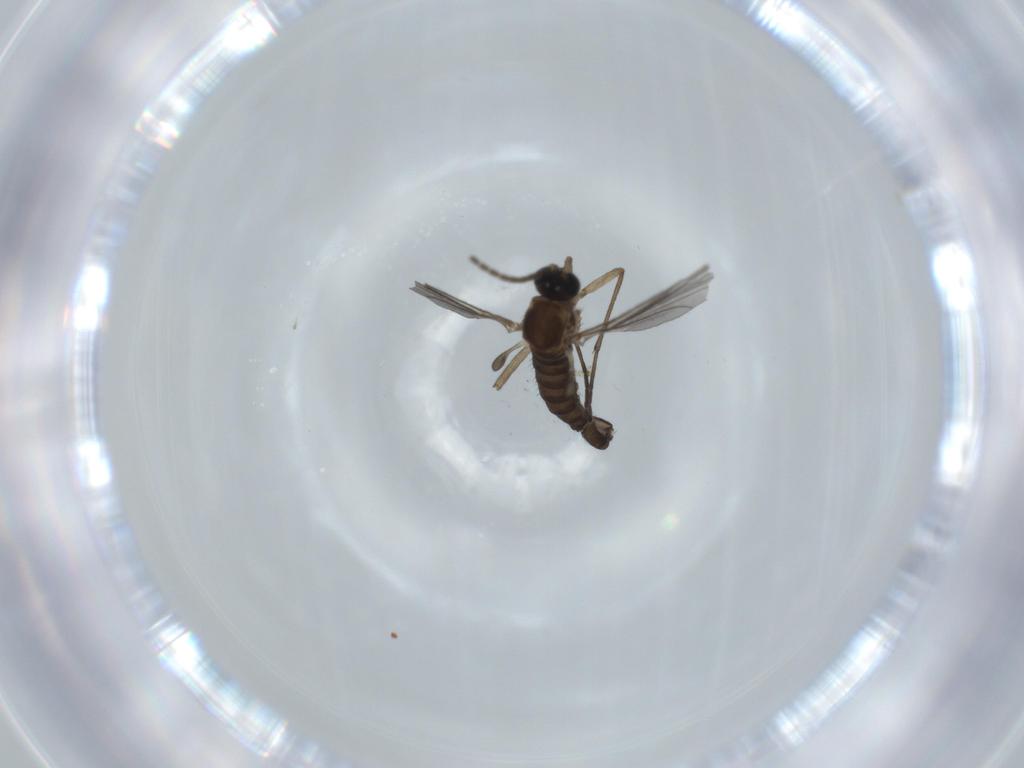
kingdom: Animalia
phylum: Arthropoda
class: Insecta
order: Diptera
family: Sciaridae
